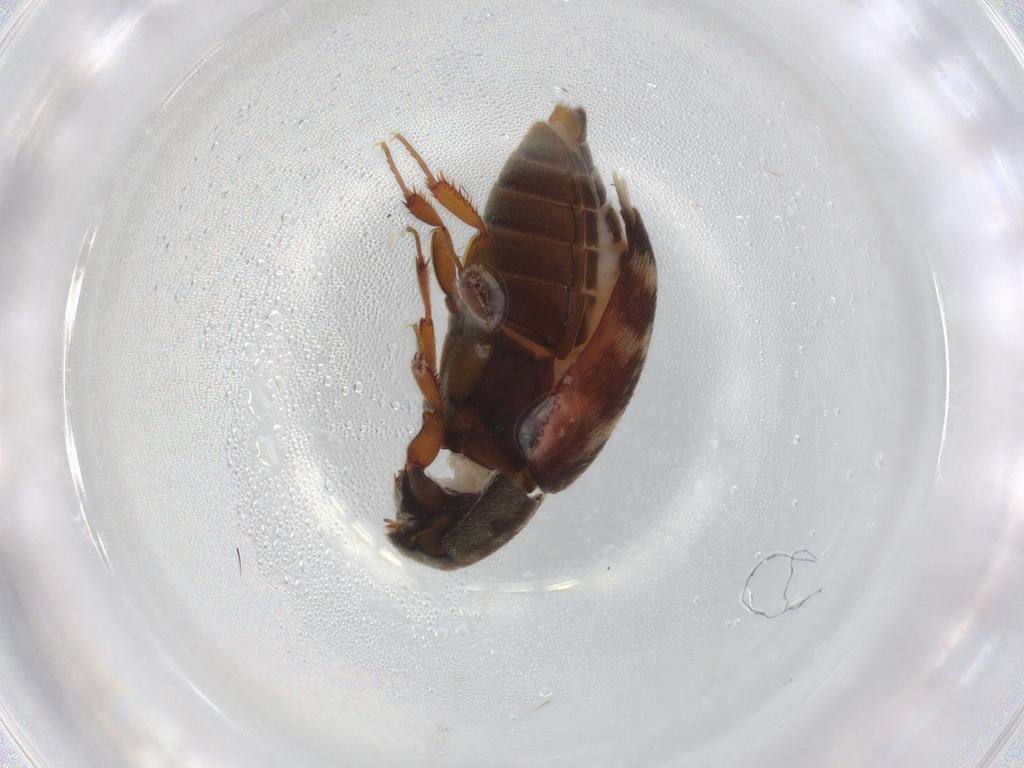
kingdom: Animalia
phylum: Arthropoda
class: Insecta
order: Coleoptera
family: Dermestidae
